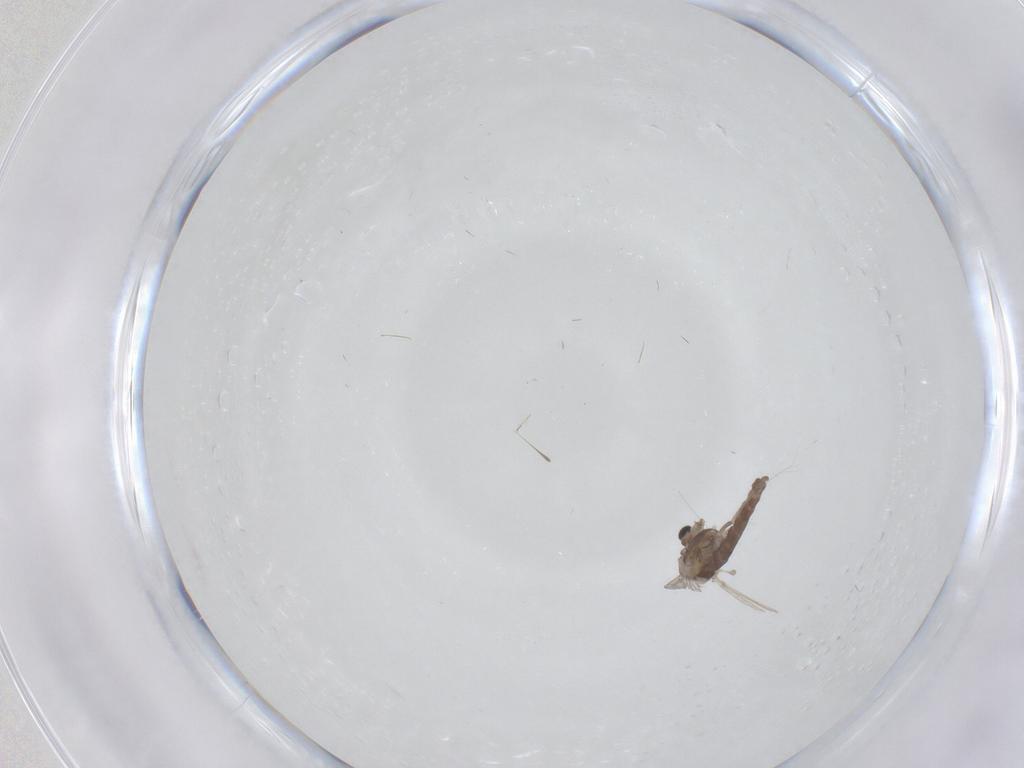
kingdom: Animalia
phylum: Arthropoda
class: Insecta
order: Diptera
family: Chironomidae
